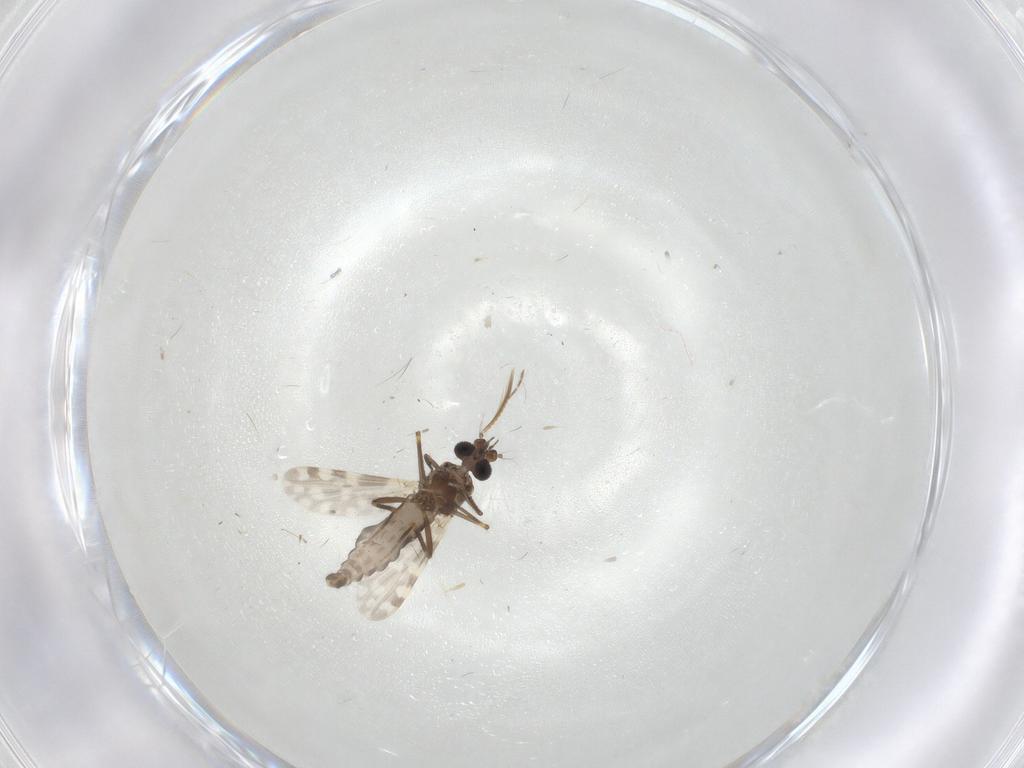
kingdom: Animalia
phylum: Arthropoda
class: Insecta
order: Diptera
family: Ceratopogonidae
